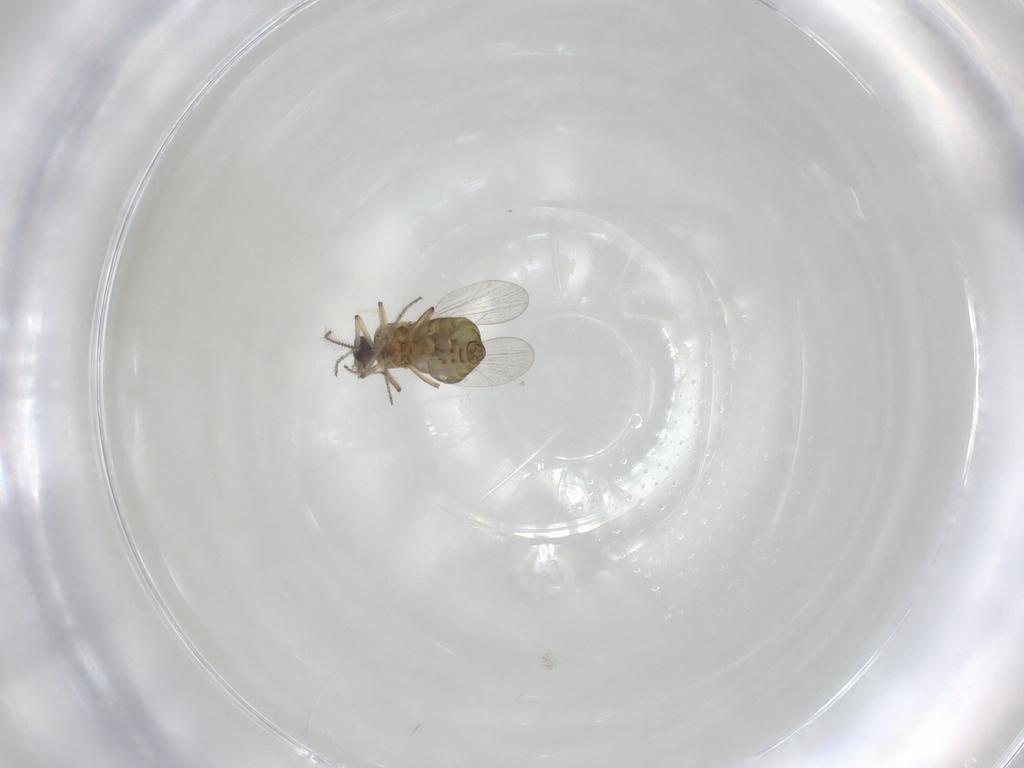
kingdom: Animalia
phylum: Arthropoda
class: Insecta
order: Diptera
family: Ceratopogonidae
